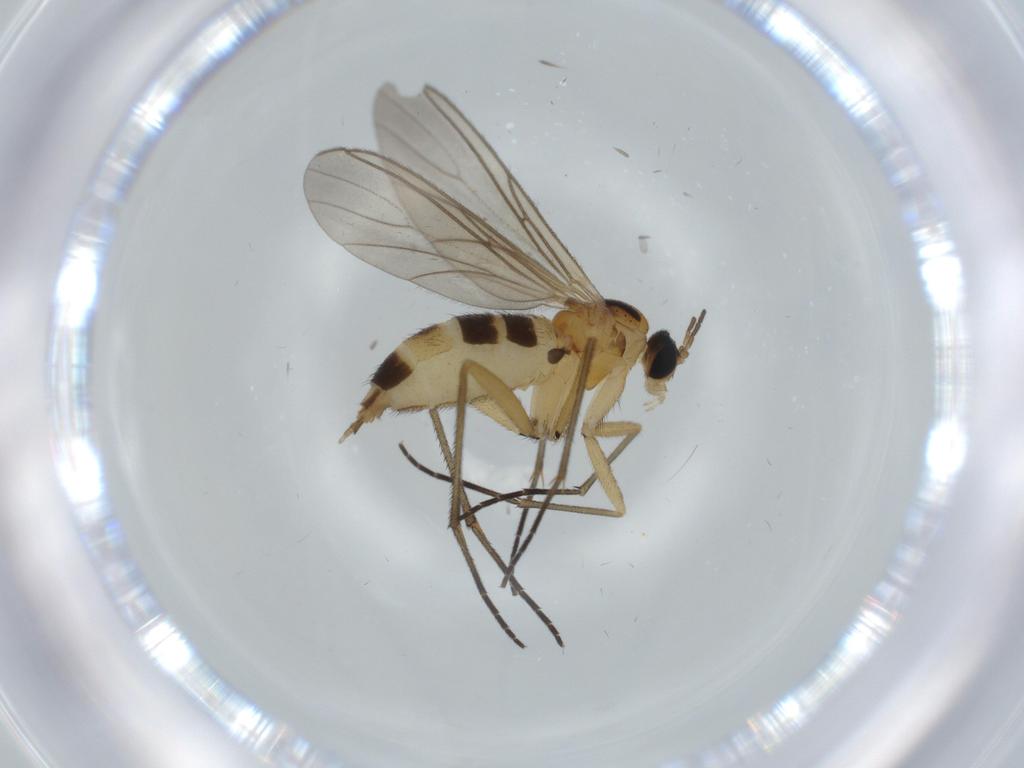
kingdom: Animalia
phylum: Arthropoda
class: Insecta
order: Diptera
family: Sciaridae
